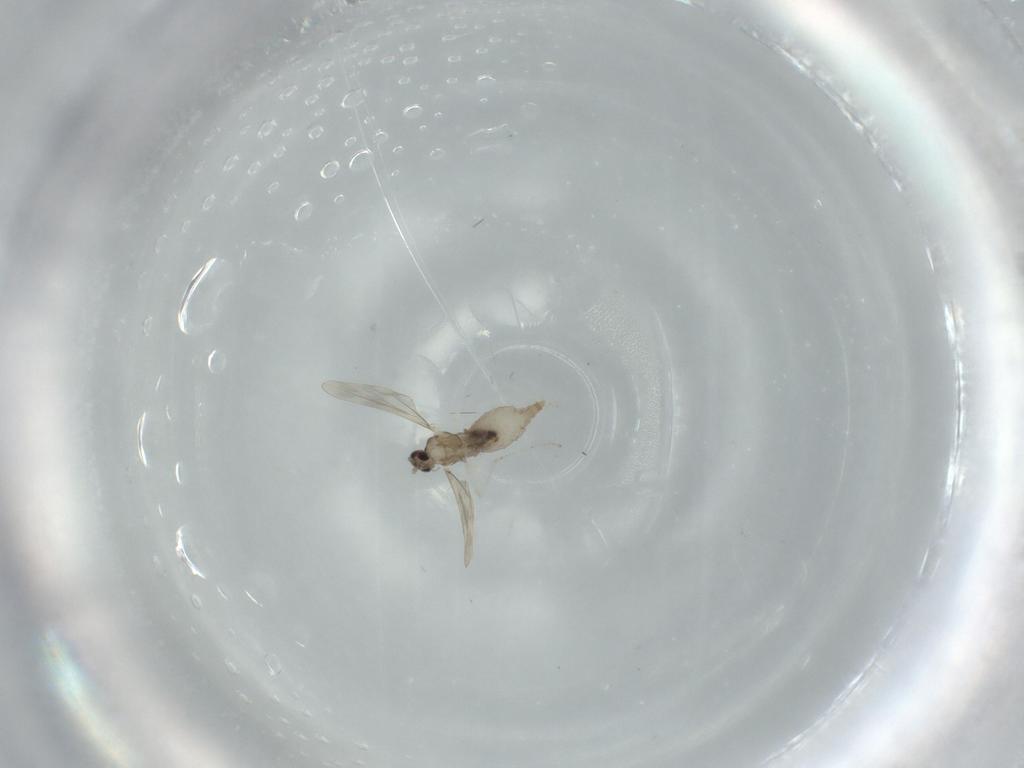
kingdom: Animalia
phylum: Arthropoda
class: Insecta
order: Diptera
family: Cecidomyiidae
